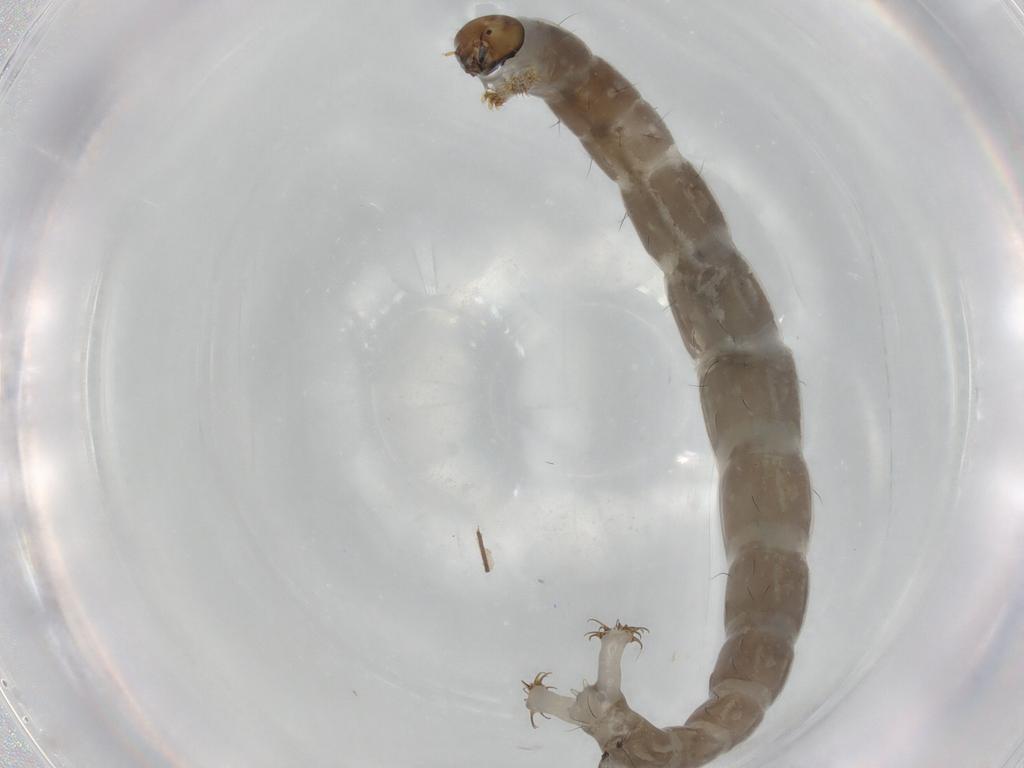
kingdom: Animalia
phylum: Arthropoda
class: Insecta
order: Diptera
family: Chironomidae
